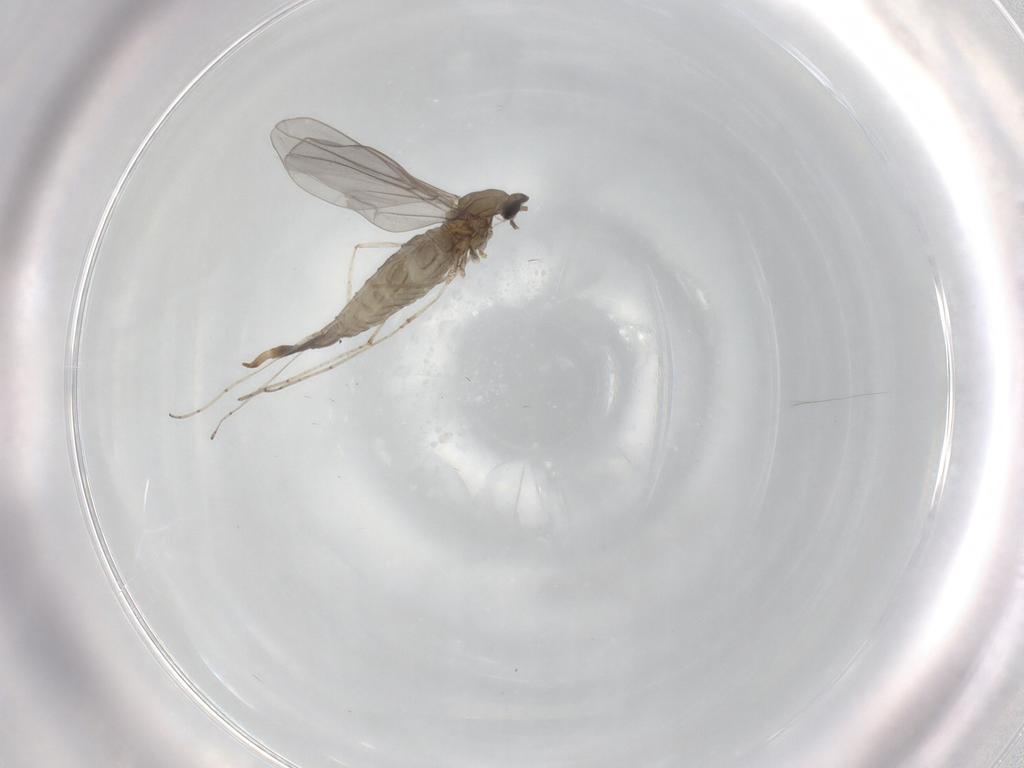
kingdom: Animalia
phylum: Arthropoda
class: Insecta
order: Diptera
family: Cecidomyiidae
